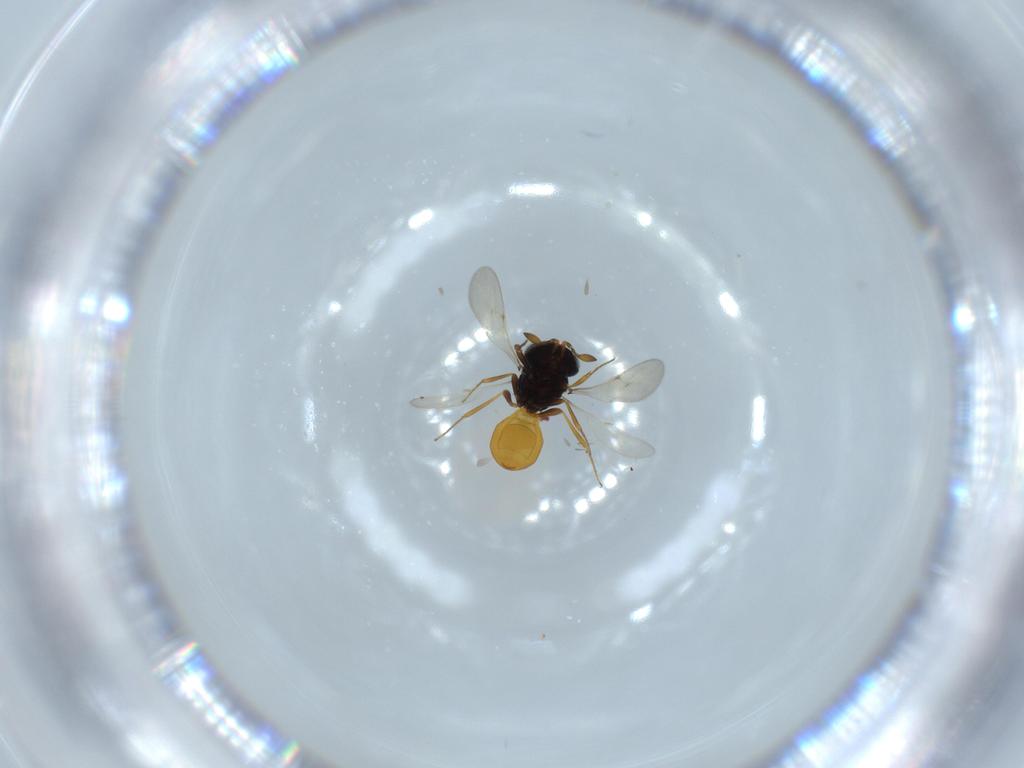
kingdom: Animalia
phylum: Arthropoda
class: Insecta
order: Hymenoptera
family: Scelionidae
